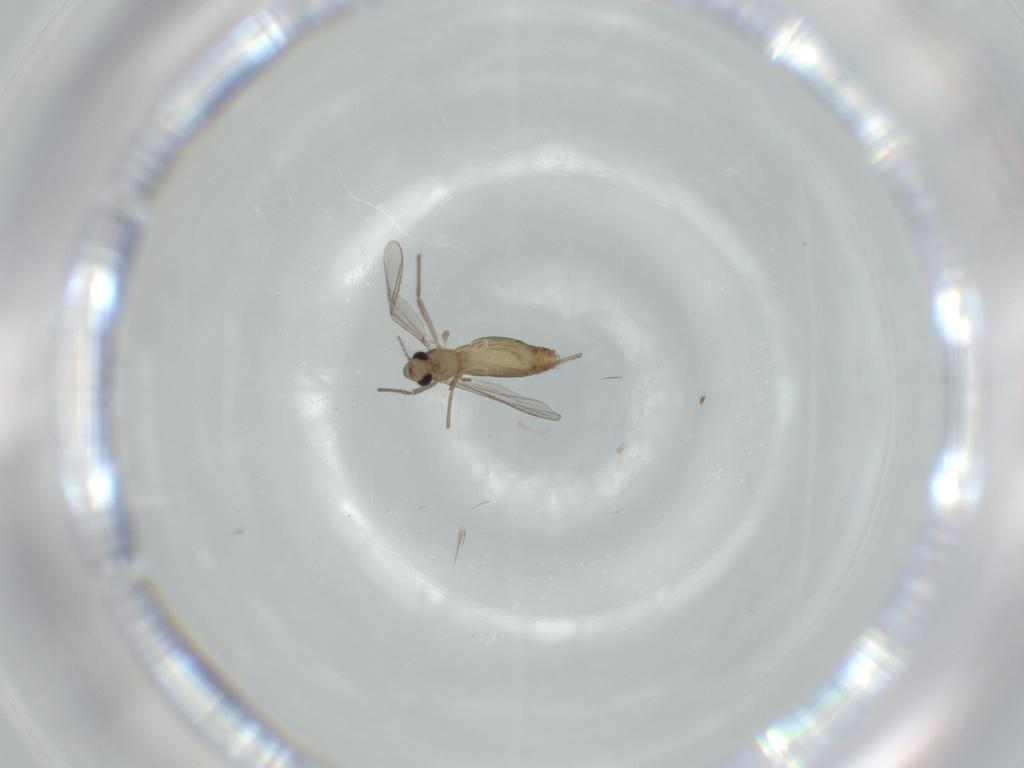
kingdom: Animalia
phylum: Arthropoda
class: Insecta
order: Diptera
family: Chironomidae
